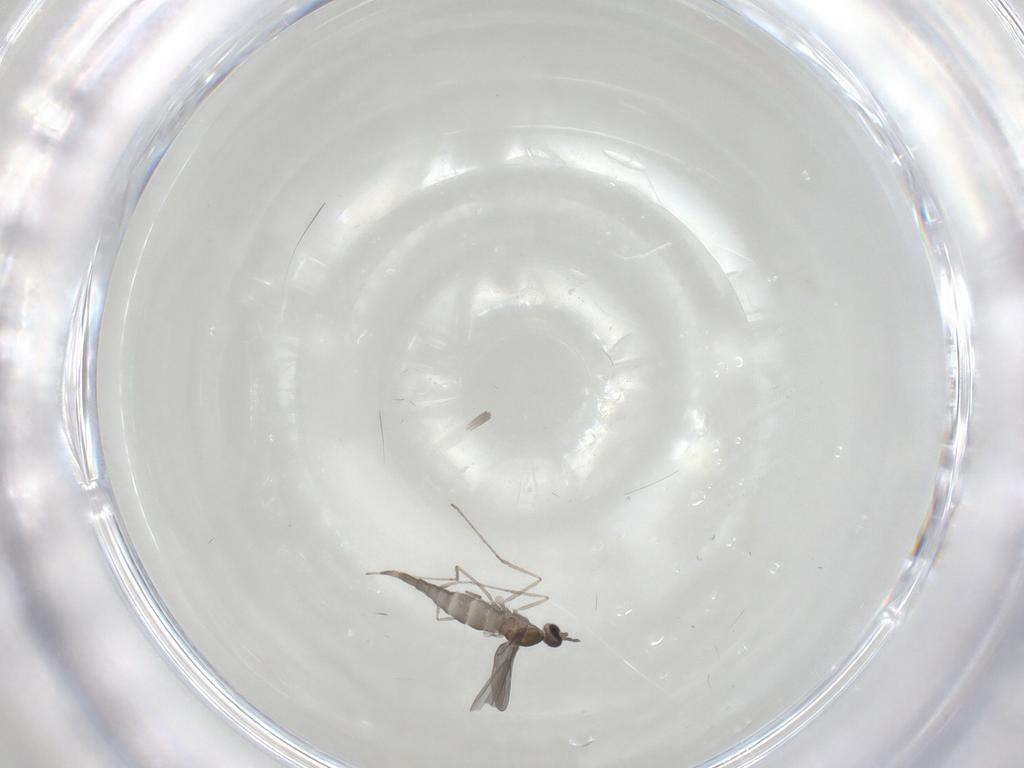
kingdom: Animalia
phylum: Arthropoda
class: Insecta
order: Diptera
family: Cecidomyiidae
